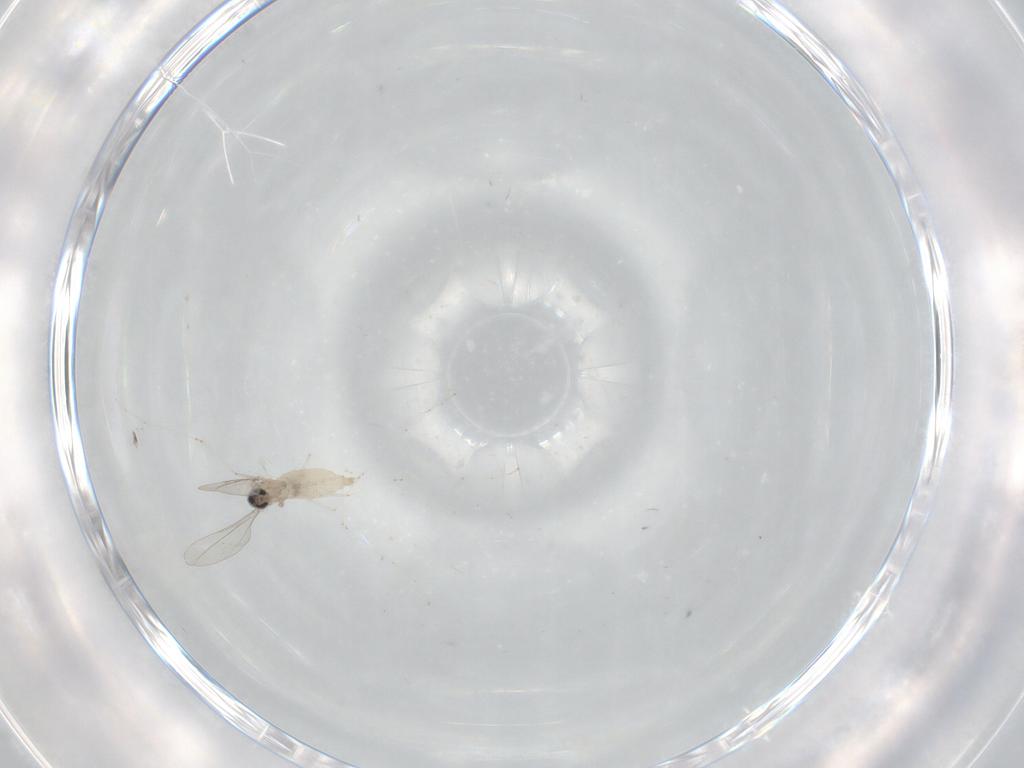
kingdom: Animalia
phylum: Arthropoda
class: Insecta
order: Diptera
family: Cecidomyiidae
